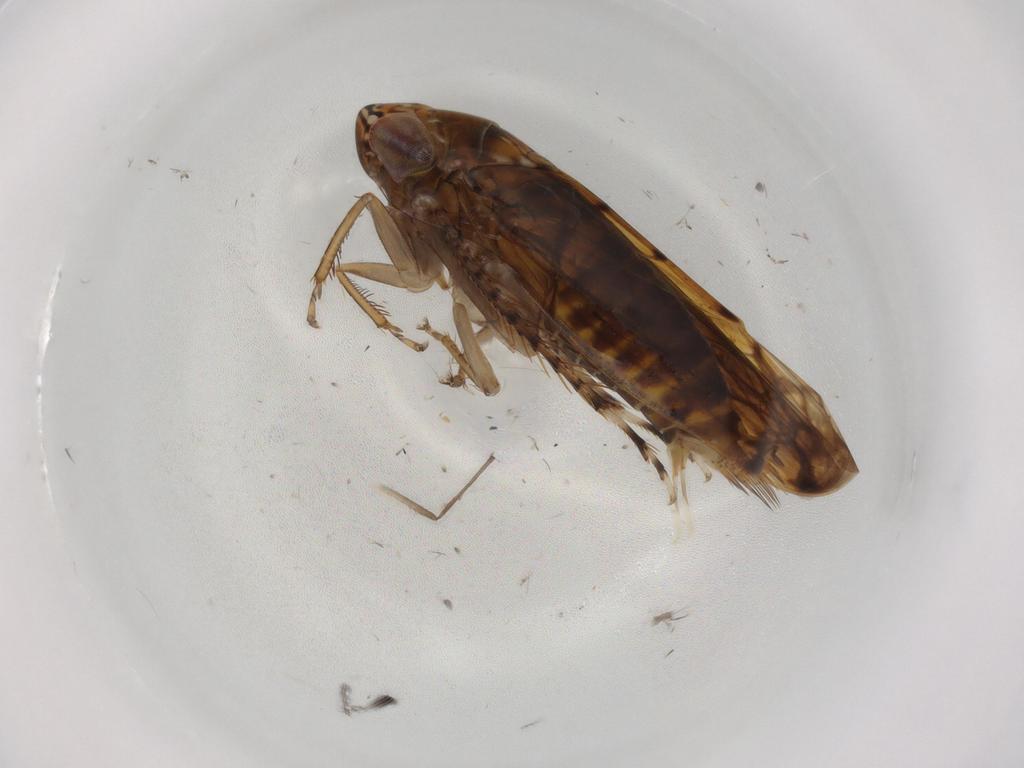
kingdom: Animalia
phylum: Arthropoda
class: Insecta
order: Hemiptera
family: Cicadellidae
